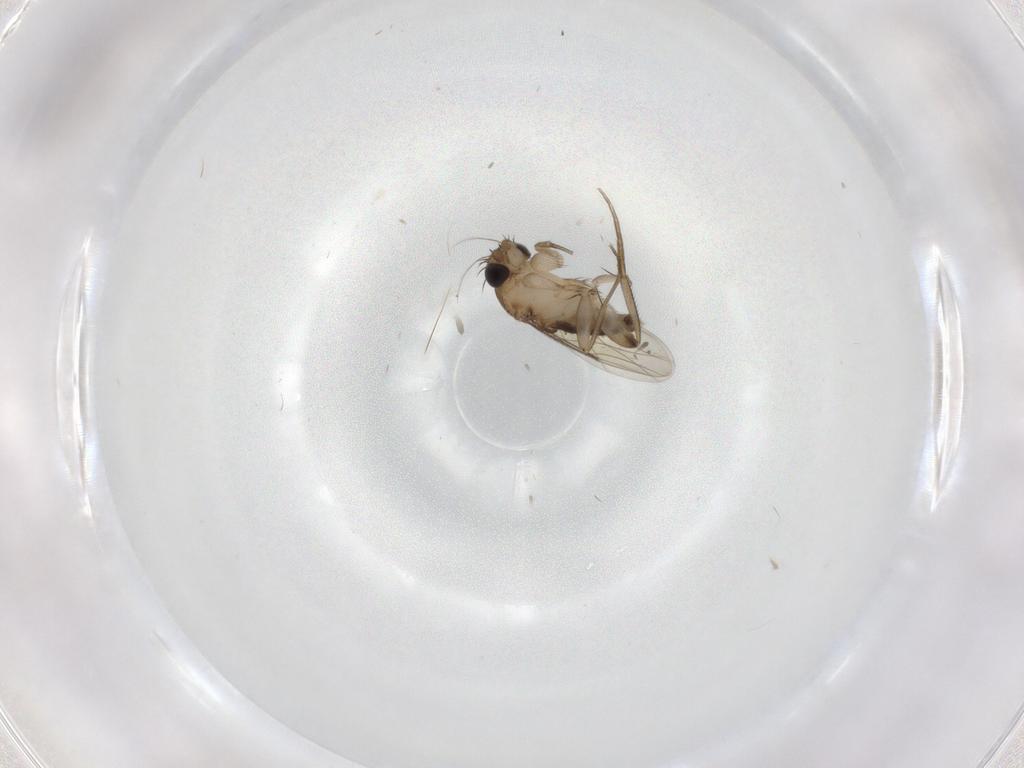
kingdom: Animalia
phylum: Arthropoda
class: Insecta
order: Diptera
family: Phoridae
